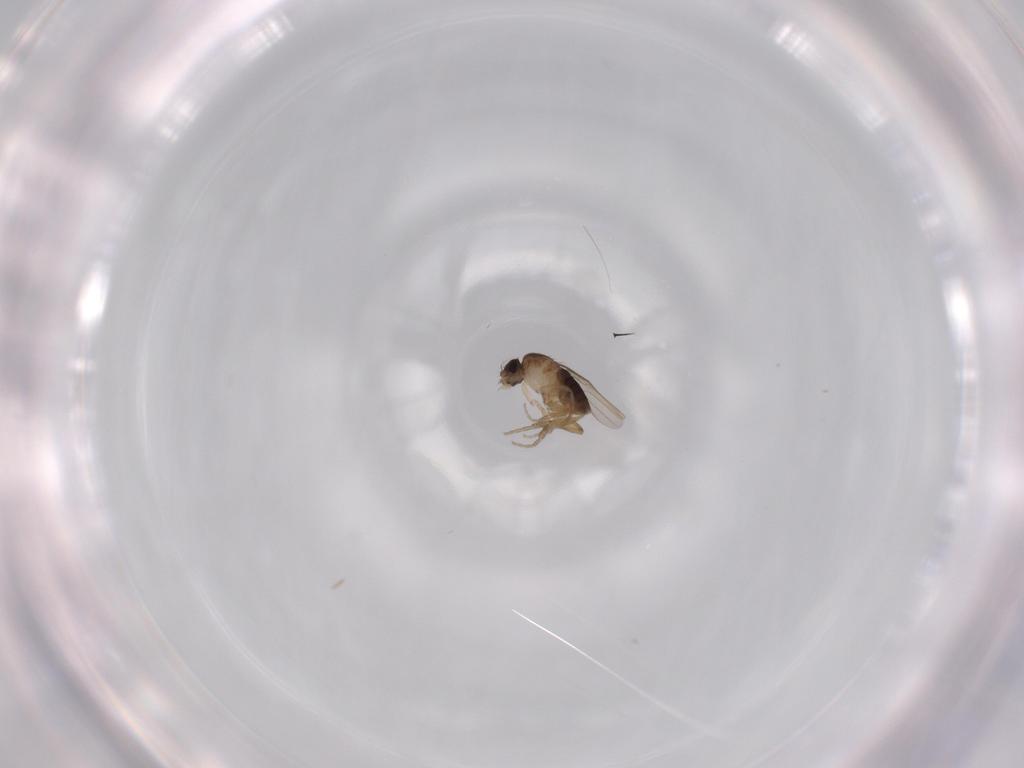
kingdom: Animalia
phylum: Arthropoda
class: Insecta
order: Diptera
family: Phoridae
